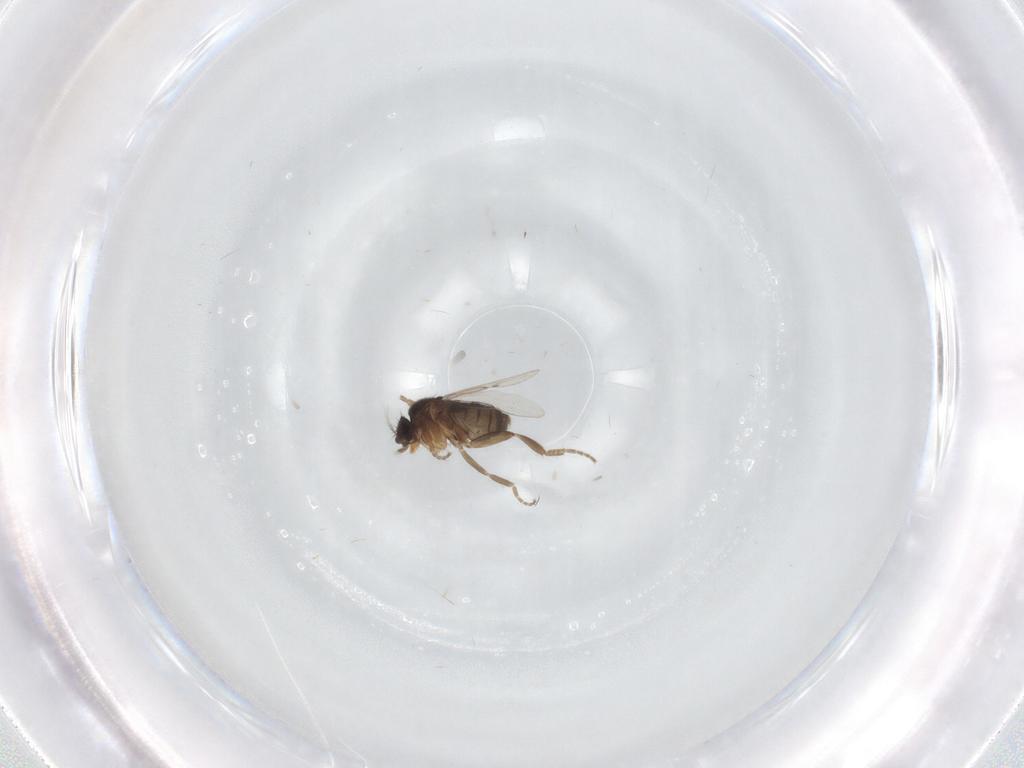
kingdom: Animalia
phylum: Arthropoda
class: Insecta
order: Diptera
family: Phoridae
